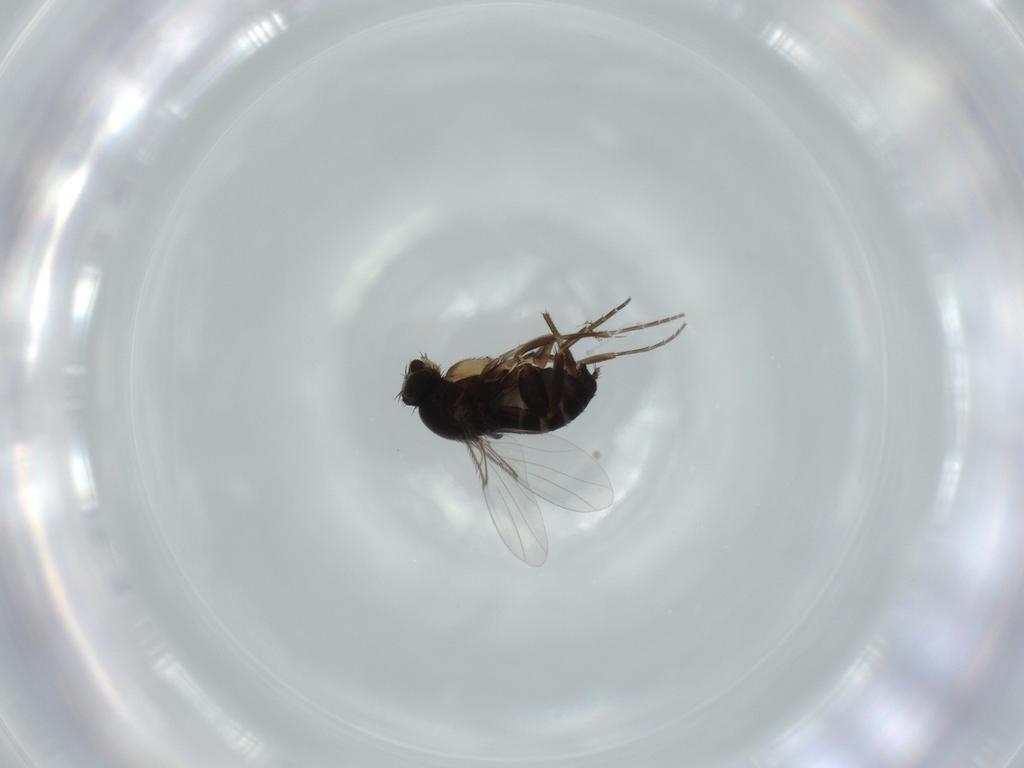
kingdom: Animalia
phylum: Arthropoda
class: Insecta
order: Diptera
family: Phoridae
